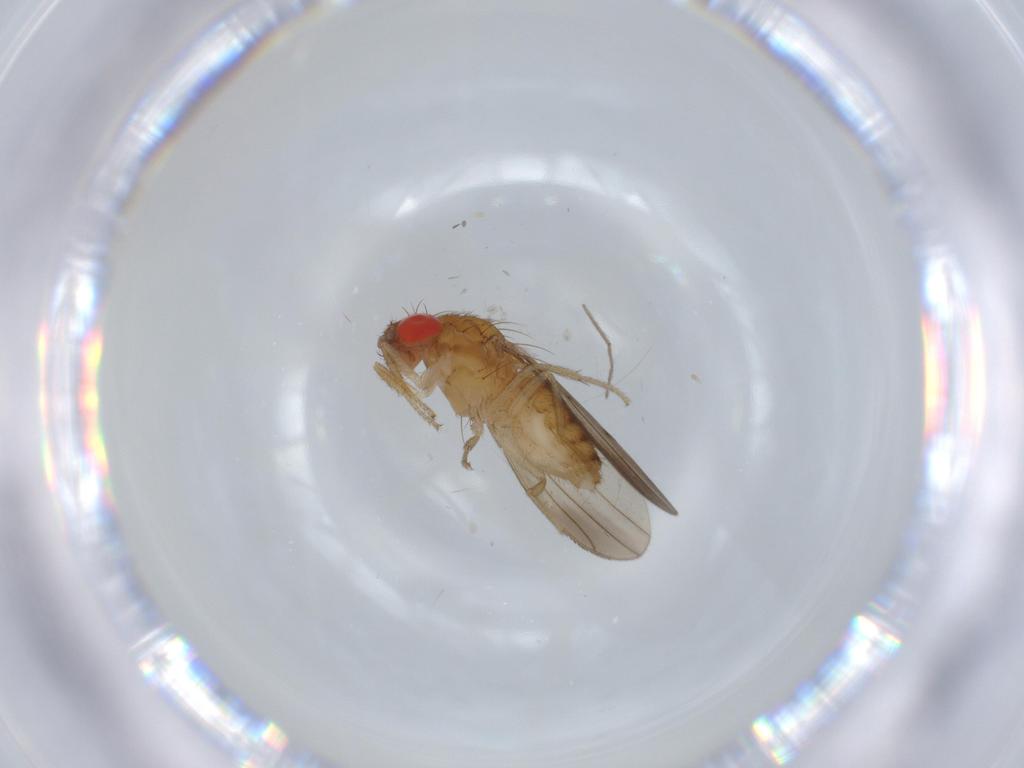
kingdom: Animalia
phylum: Arthropoda
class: Insecta
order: Diptera
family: Drosophilidae
